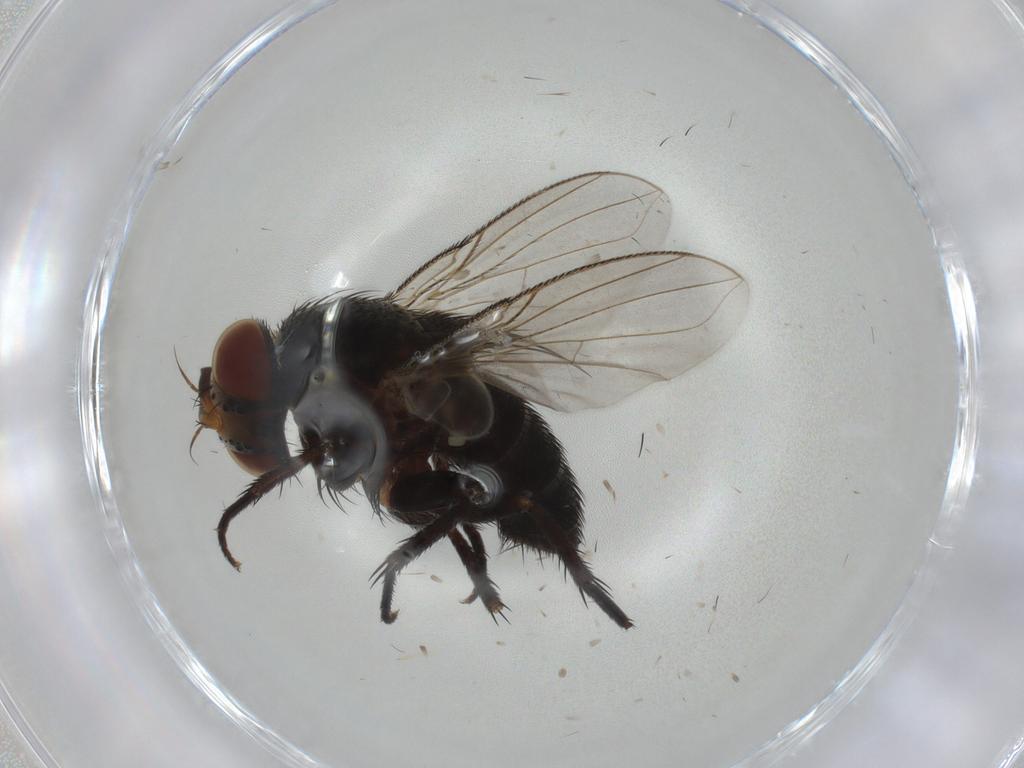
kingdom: Animalia
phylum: Arthropoda
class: Insecta
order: Diptera
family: Tachinidae
